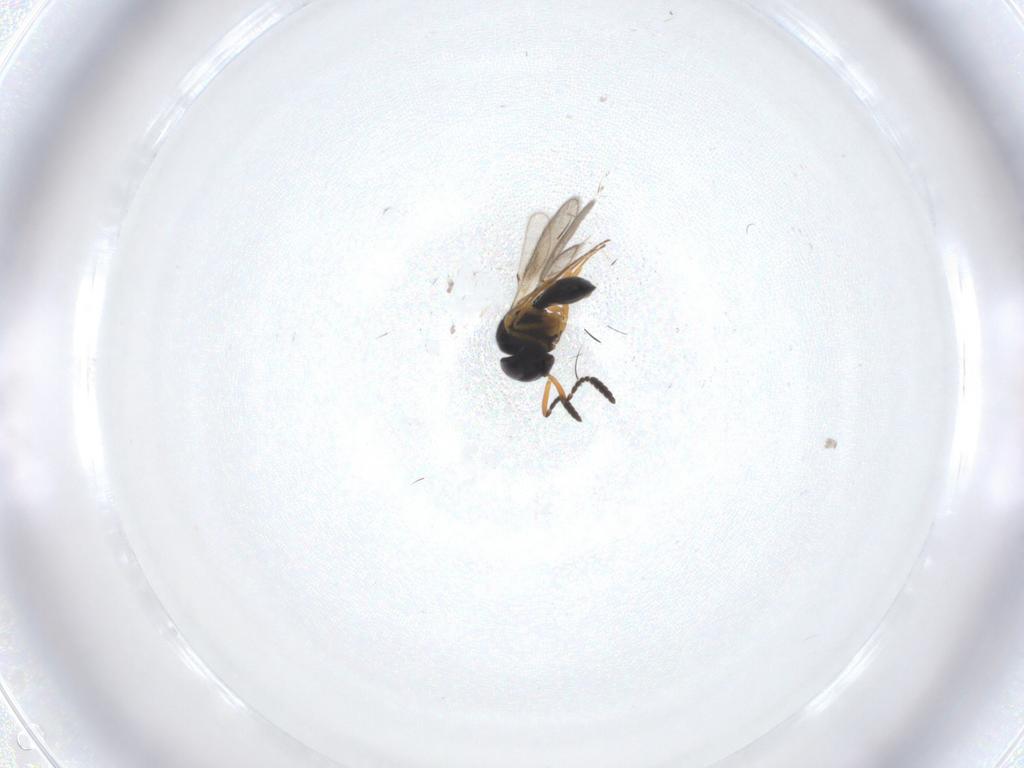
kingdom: Animalia
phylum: Arthropoda
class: Insecta
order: Hymenoptera
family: Scelionidae
